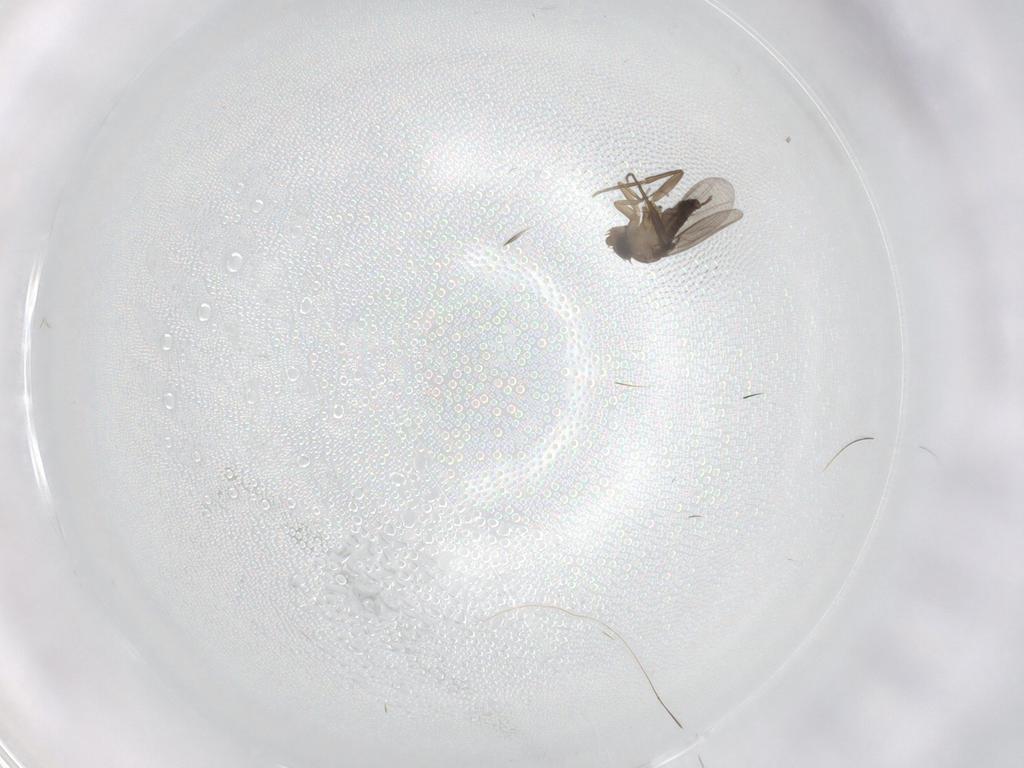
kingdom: Animalia
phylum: Arthropoda
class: Insecta
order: Diptera
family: Phoridae
